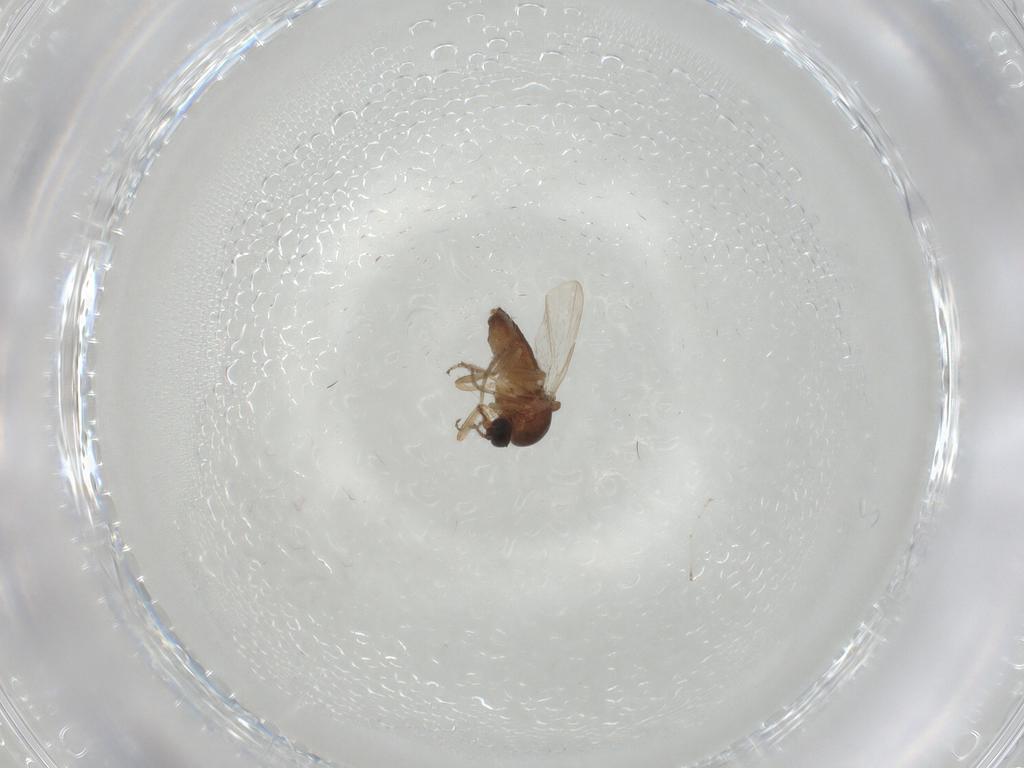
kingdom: Animalia
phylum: Arthropoda
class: Insecta
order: Diptera
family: Ceratopogonidae
